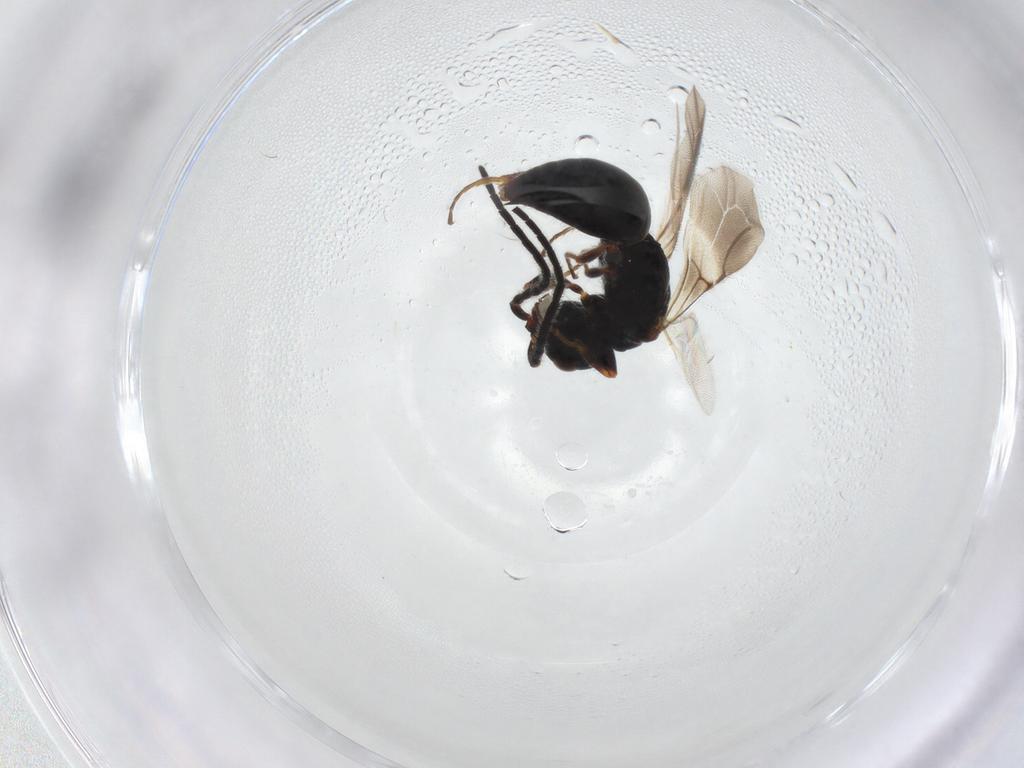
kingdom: Animalia
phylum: Arthropoda
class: Insecta
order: Hymenoptera
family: Bethylidae
